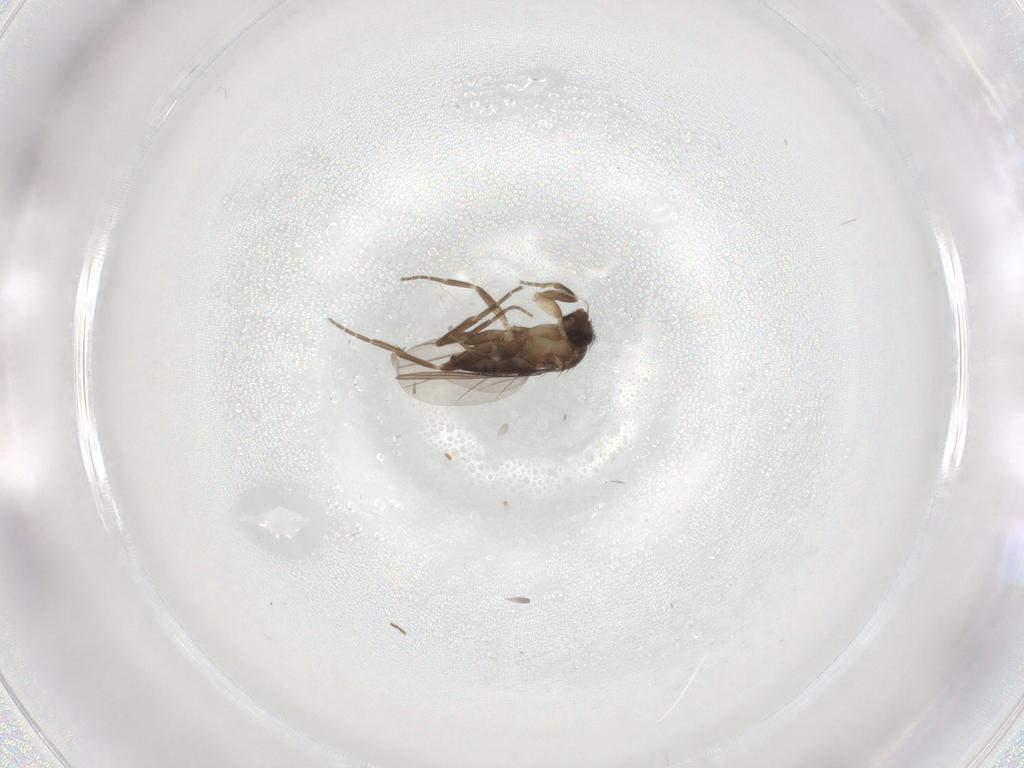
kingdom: Animalia
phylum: Arthropoda
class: Insecta
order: Diptera
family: Phoridae
